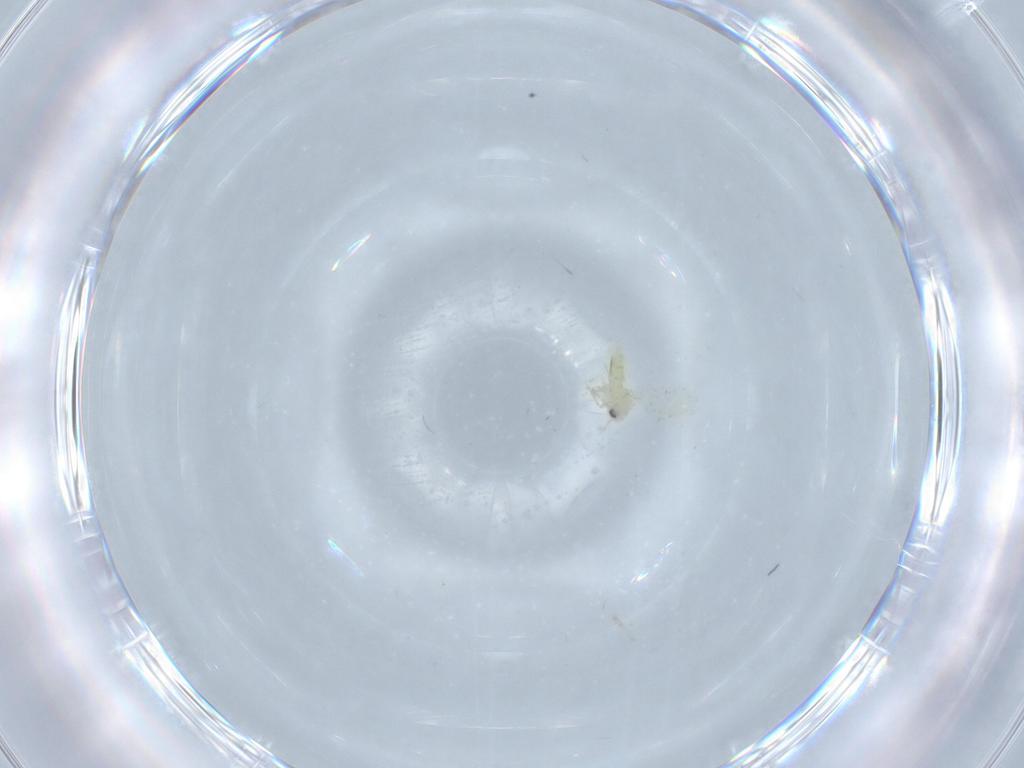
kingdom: Animalia
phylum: Arthropoda
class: Insecta
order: Hemiptera
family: Aleyrodidae
